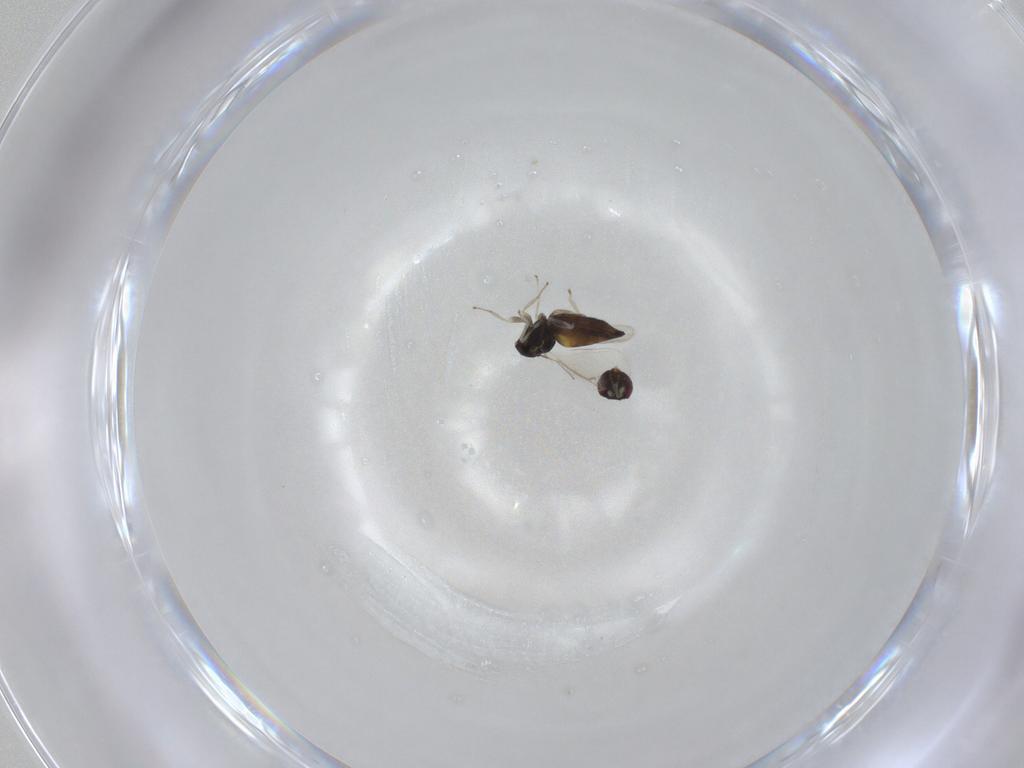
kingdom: Animalia
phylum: Arthropoda
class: Insecta
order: Hymenoptera
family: Eulophidae
